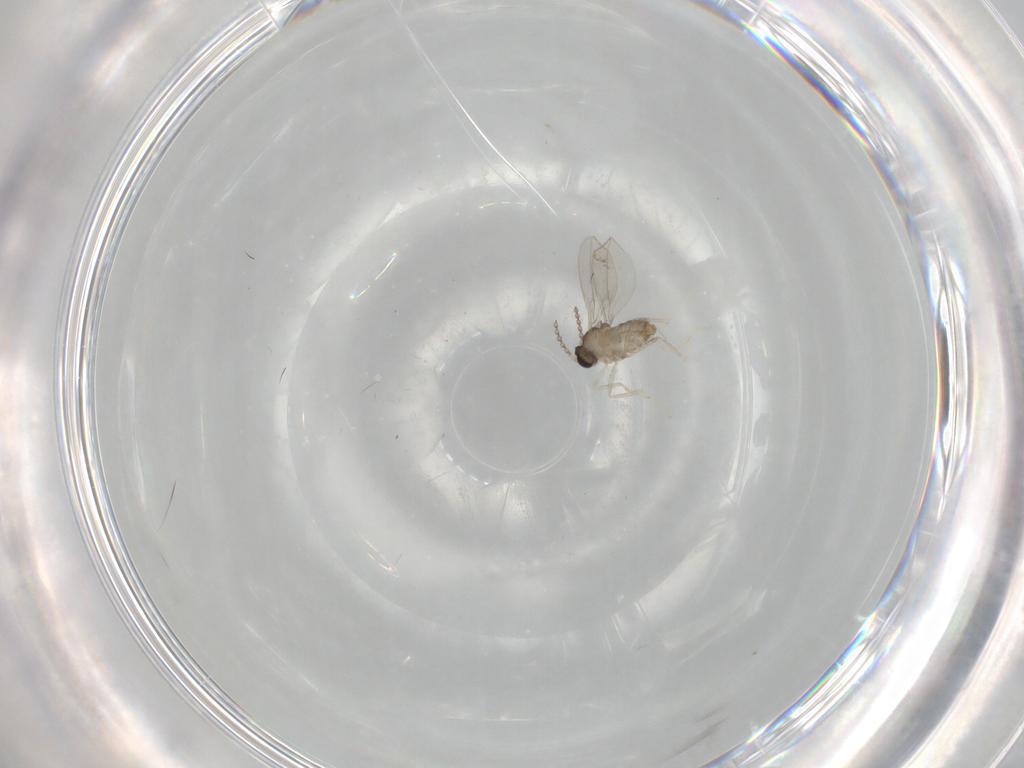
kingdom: Animalia
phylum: Arthropoda
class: Insecta
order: Diptera
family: Cecidomyiidae
